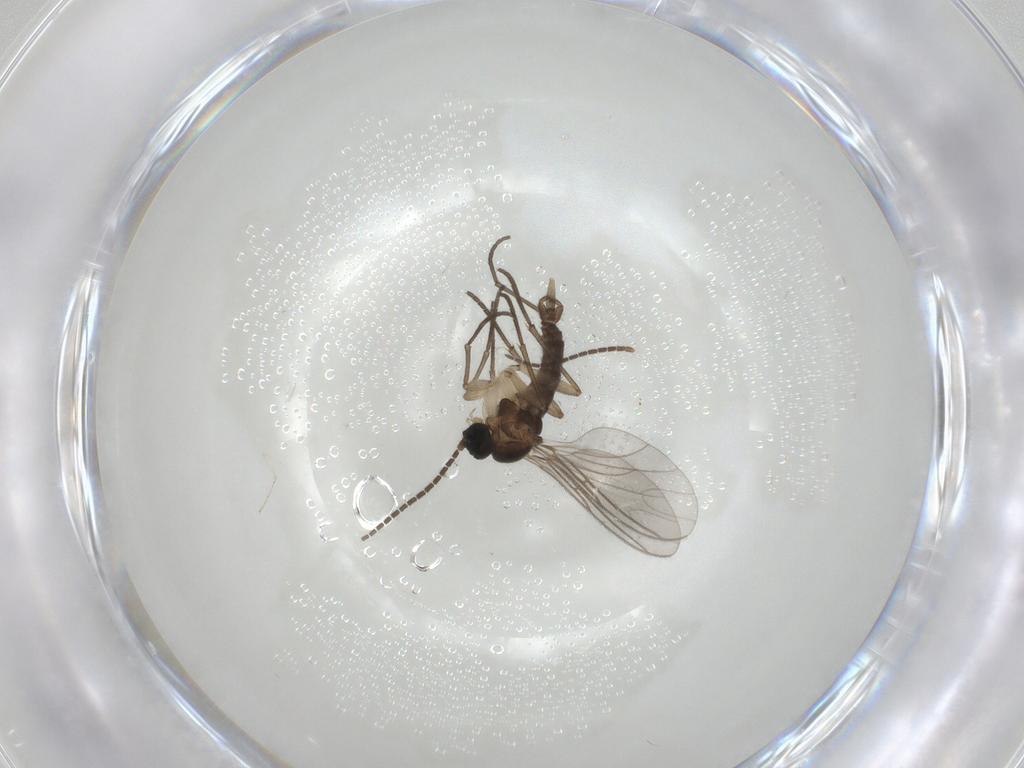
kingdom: Animalia
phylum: Arthropoda
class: Insecta
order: Diptera
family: Sciaridae
